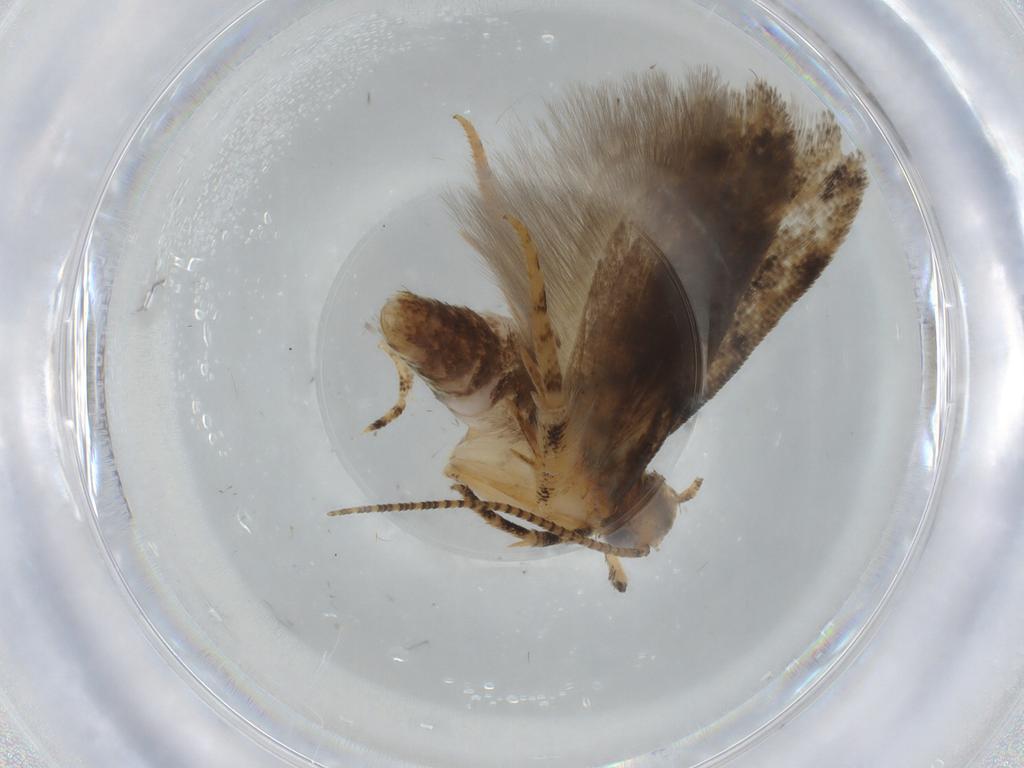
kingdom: Animalia
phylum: Arthropoda
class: Insecta
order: Lepidoptera
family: Gelechiidae
